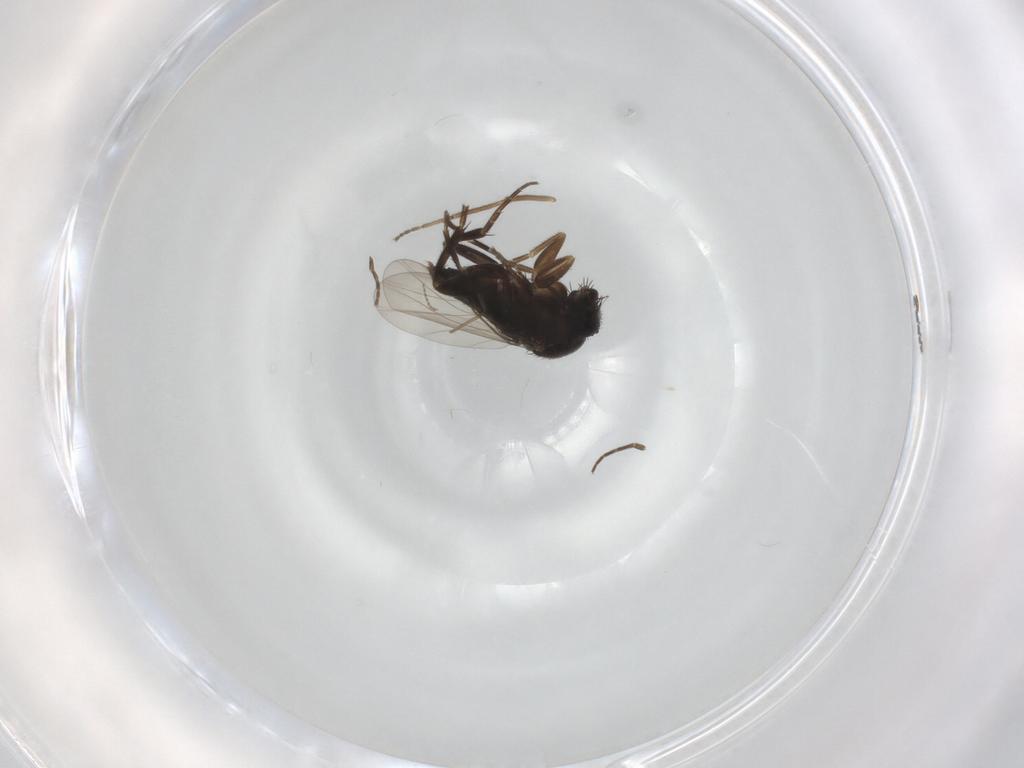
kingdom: Animalia
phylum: Arthropoda
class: Insecta
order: Diptera
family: Phoridae
